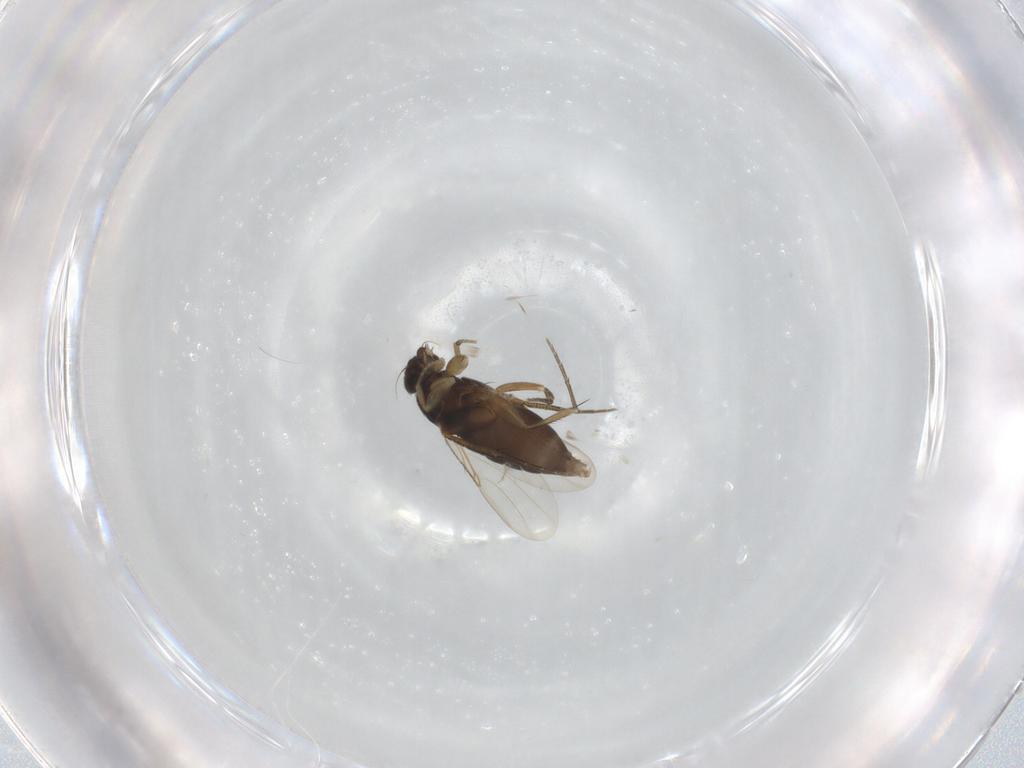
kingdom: Animalia
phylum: Arthropoda
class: Insecta
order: Diptera
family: Phoridae
